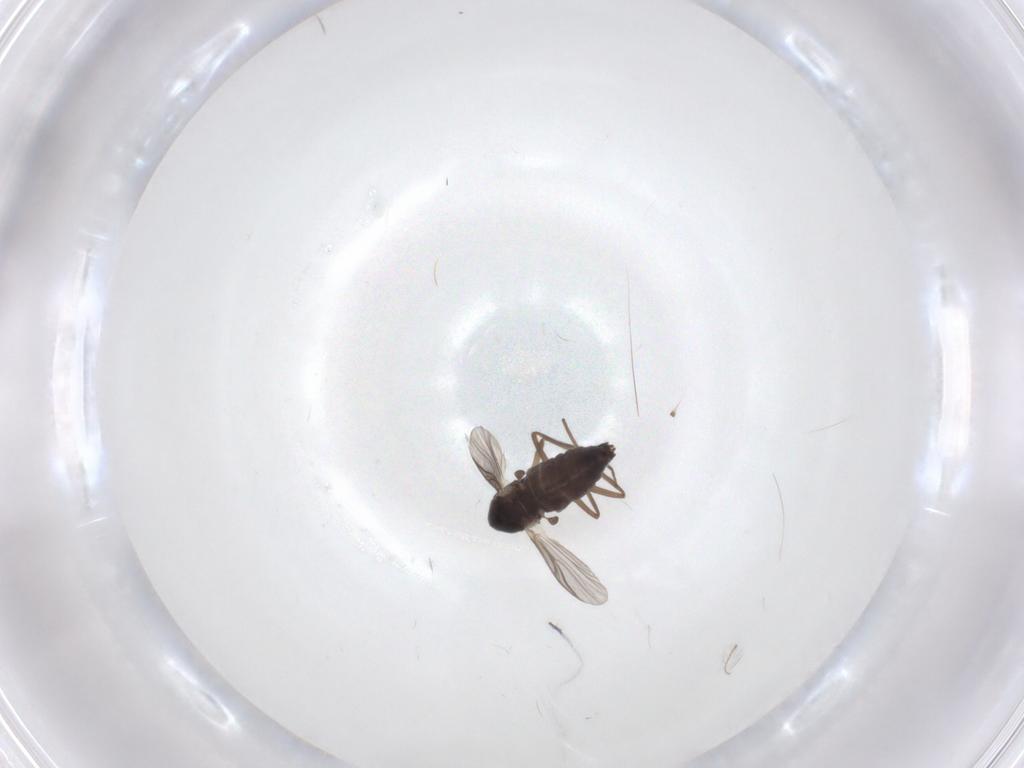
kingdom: Animalia
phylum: Arthropoda
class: Insecta
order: Diptera
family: Chironomidae
